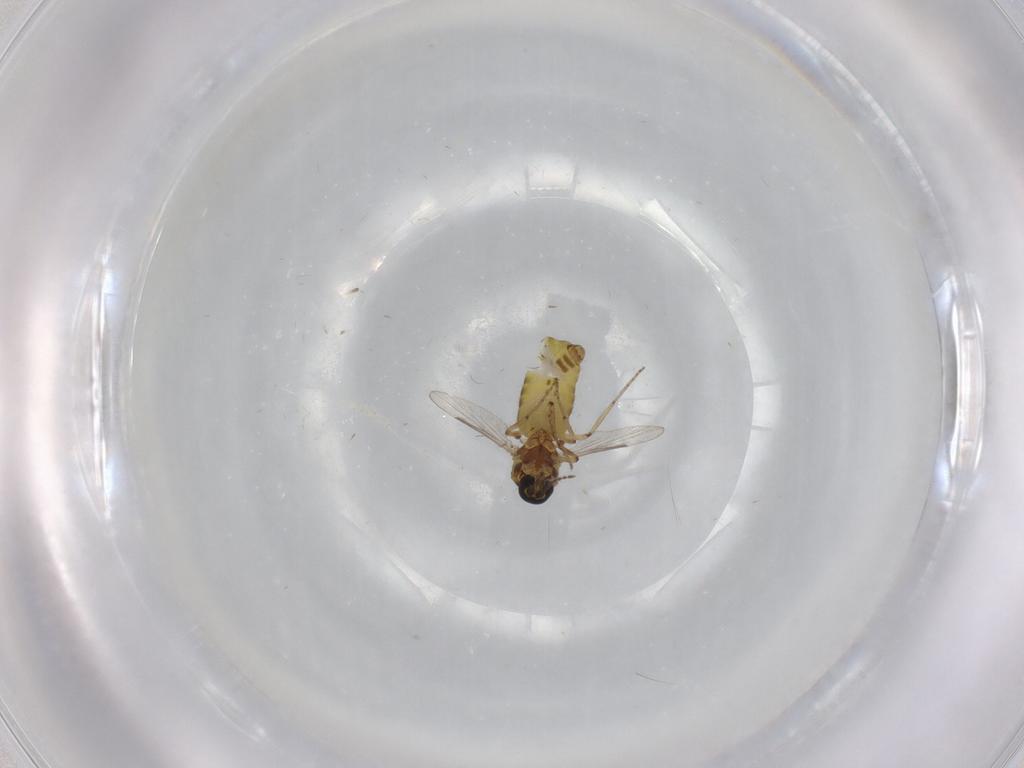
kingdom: Animalia
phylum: Arthropoda
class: Insecta
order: Diptera
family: Ceratopogonidae
